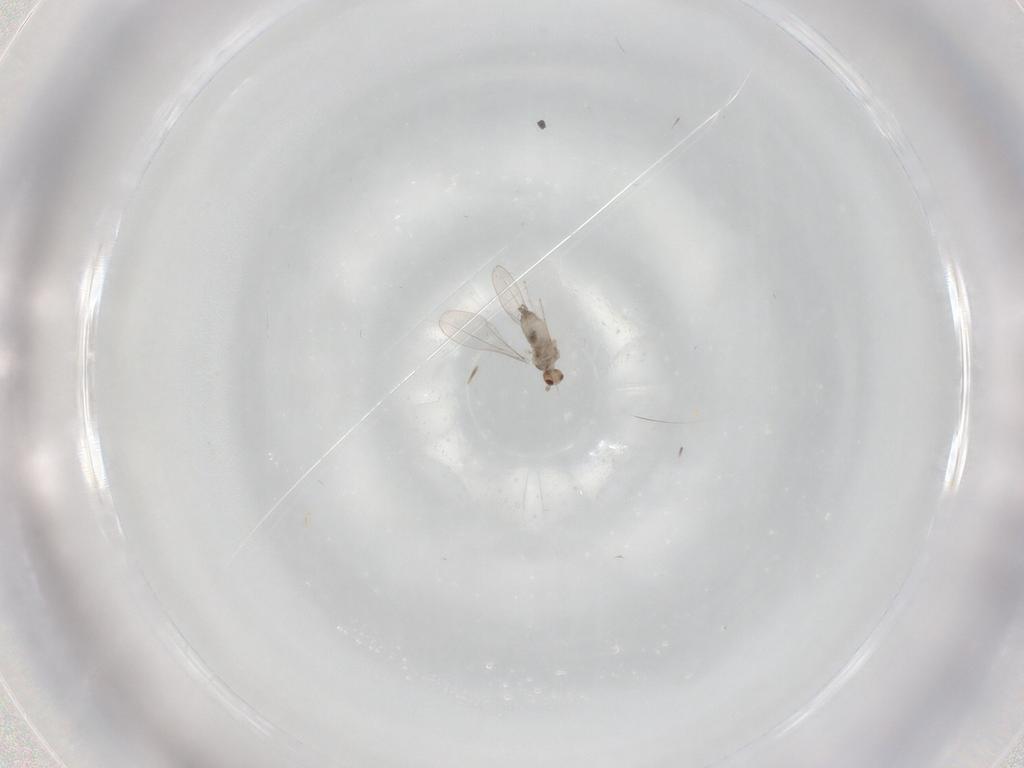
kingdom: Animalia
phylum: Arthropoda
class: Insecta
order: Diptera
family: Cecidomyiidae
